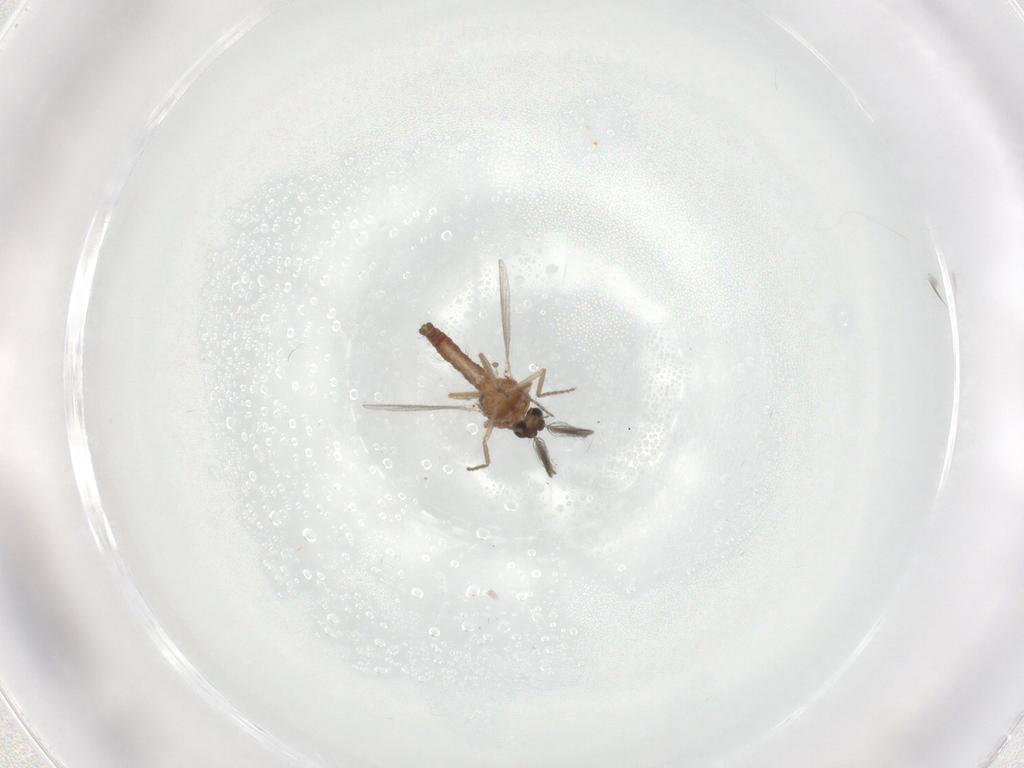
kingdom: Animalia
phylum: Arthropoda
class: Insecta
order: Diptera
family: Ceratopogonidae
